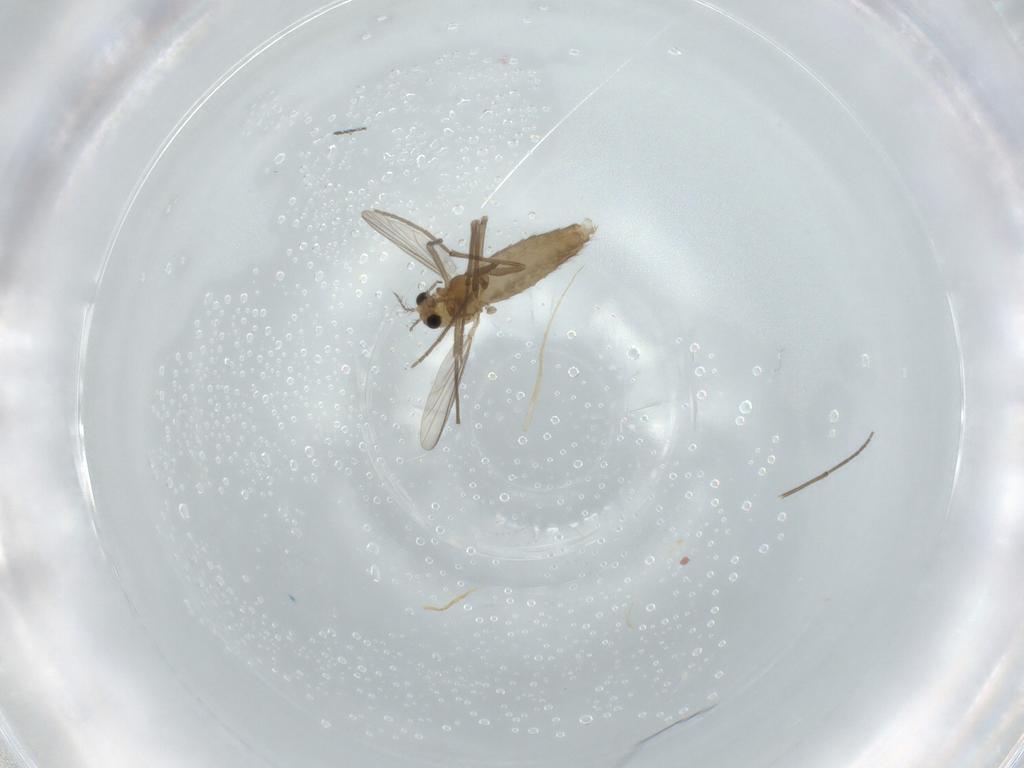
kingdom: Animalia
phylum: Arthropoda
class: Insecta
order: Diptera
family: Chironomidae
